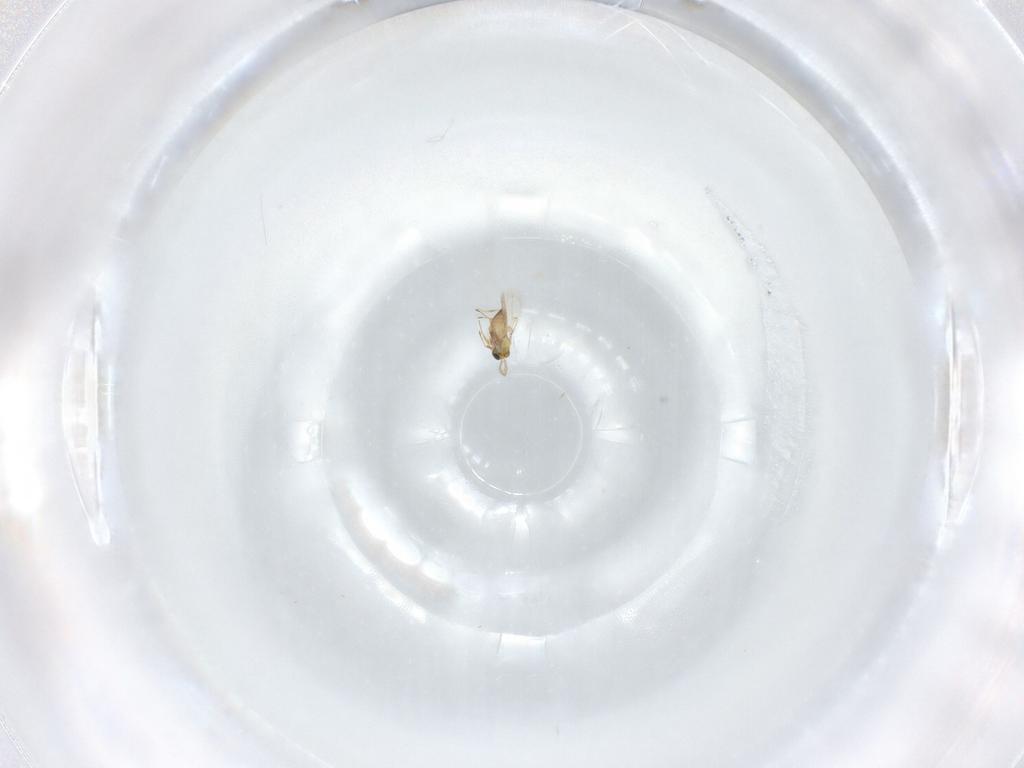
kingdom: Animalia
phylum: Arthropoda
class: Insecta
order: Hymenoptera
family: Trichogrammatidae
